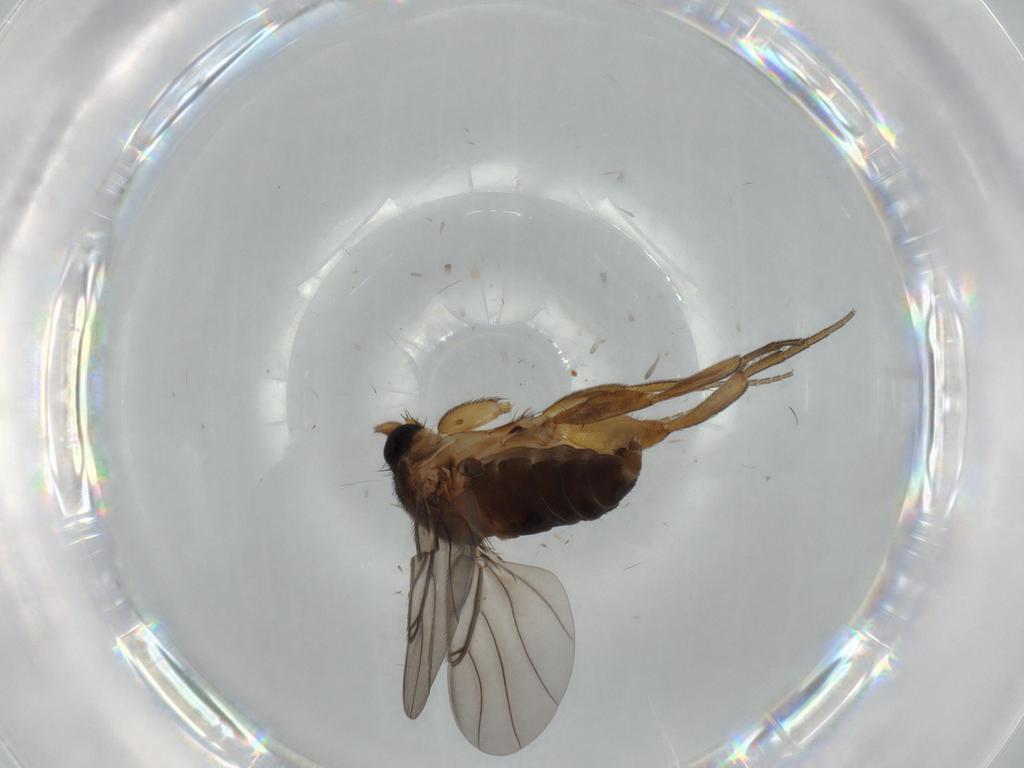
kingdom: Animalia
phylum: Arthropoda
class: Insecta
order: Diptera
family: Phoridae
